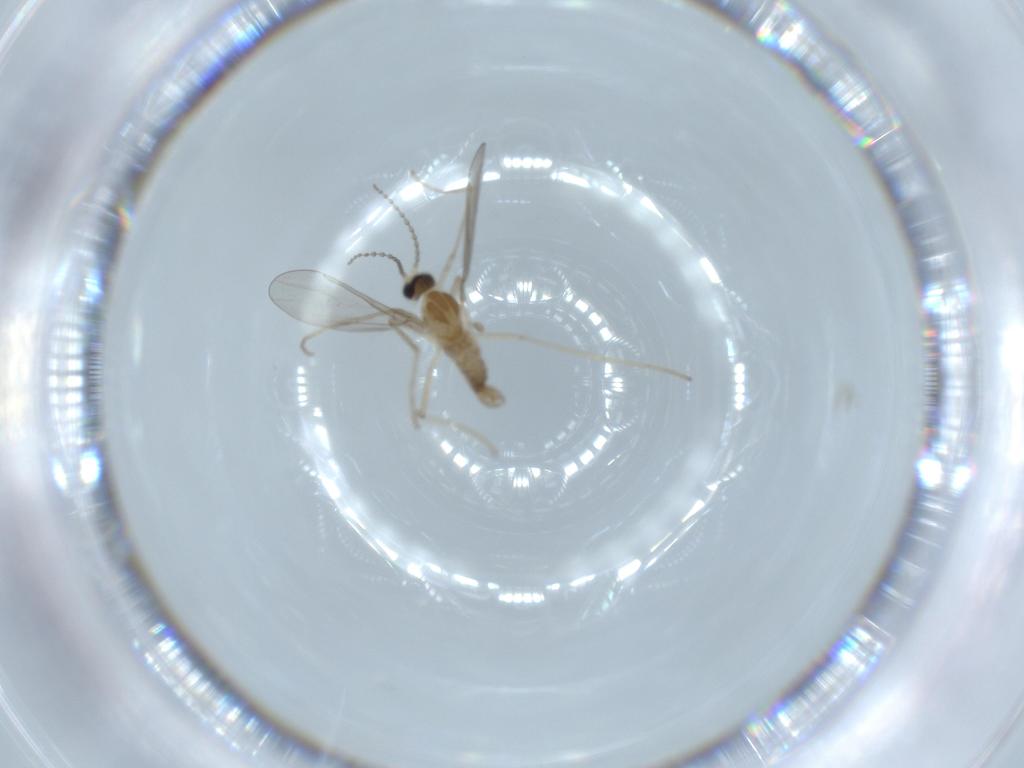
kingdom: Animalia
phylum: Arthropoda
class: Insecta
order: Diptera
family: Cecidomyiidae
